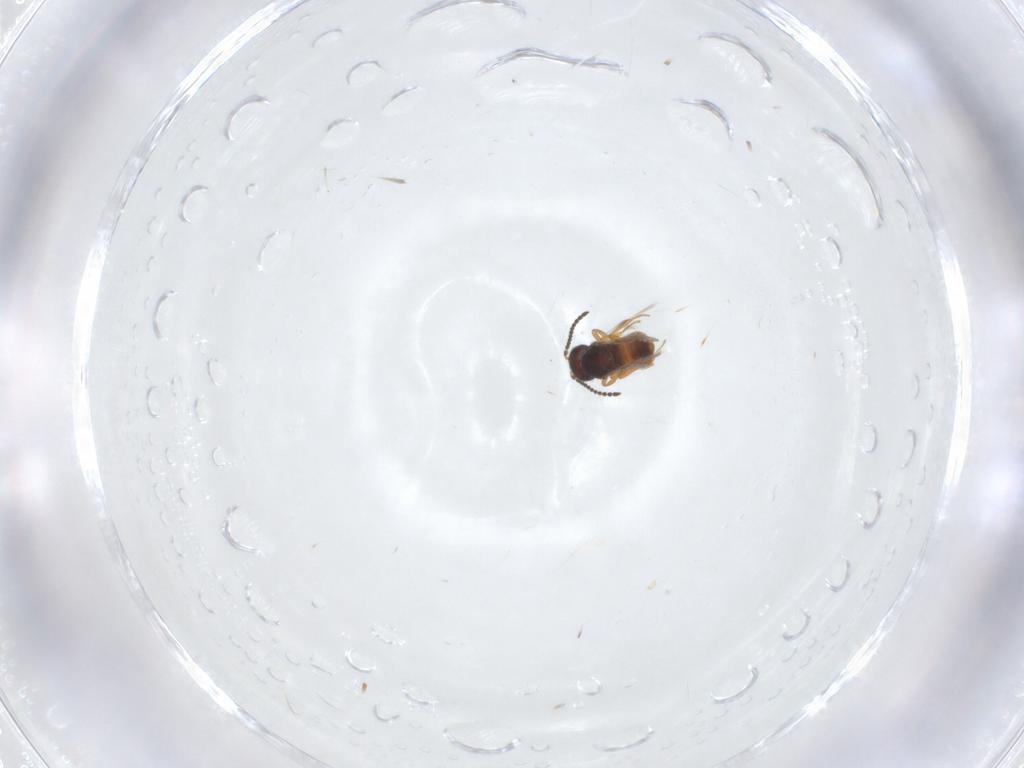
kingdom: Animalia
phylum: Arthropoda
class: Insecta
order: Hymenoptera
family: Scelionidae
